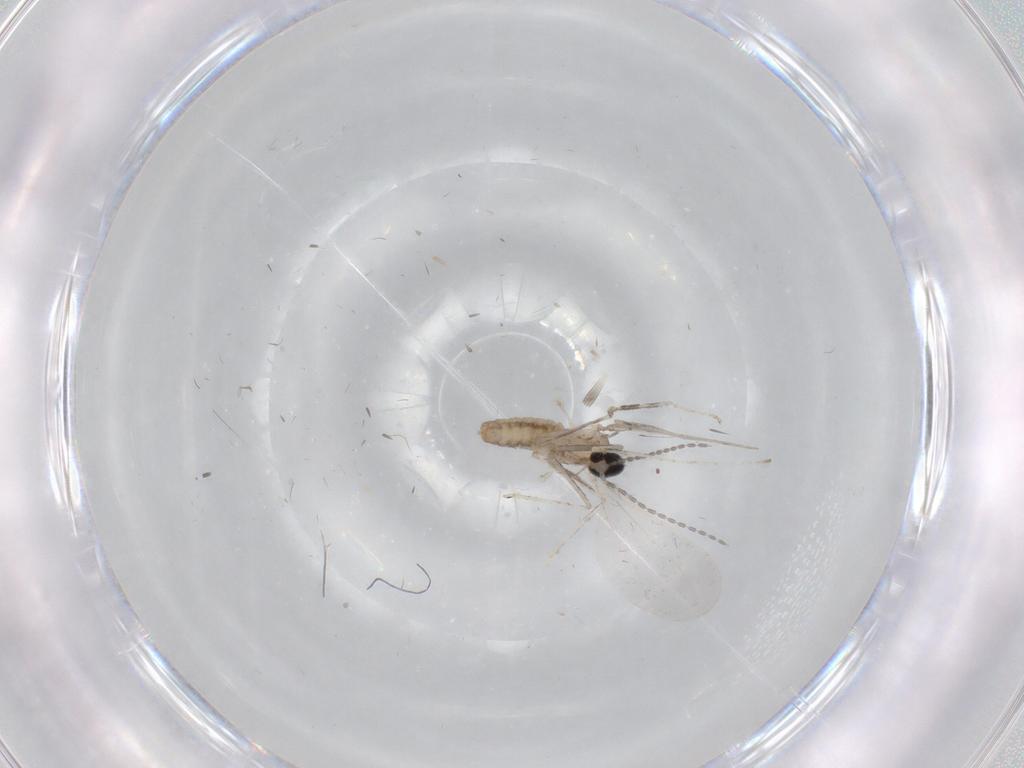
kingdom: Animalia
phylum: Arthropoda
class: Insecta
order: Diptera
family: Cecidomyiidae
